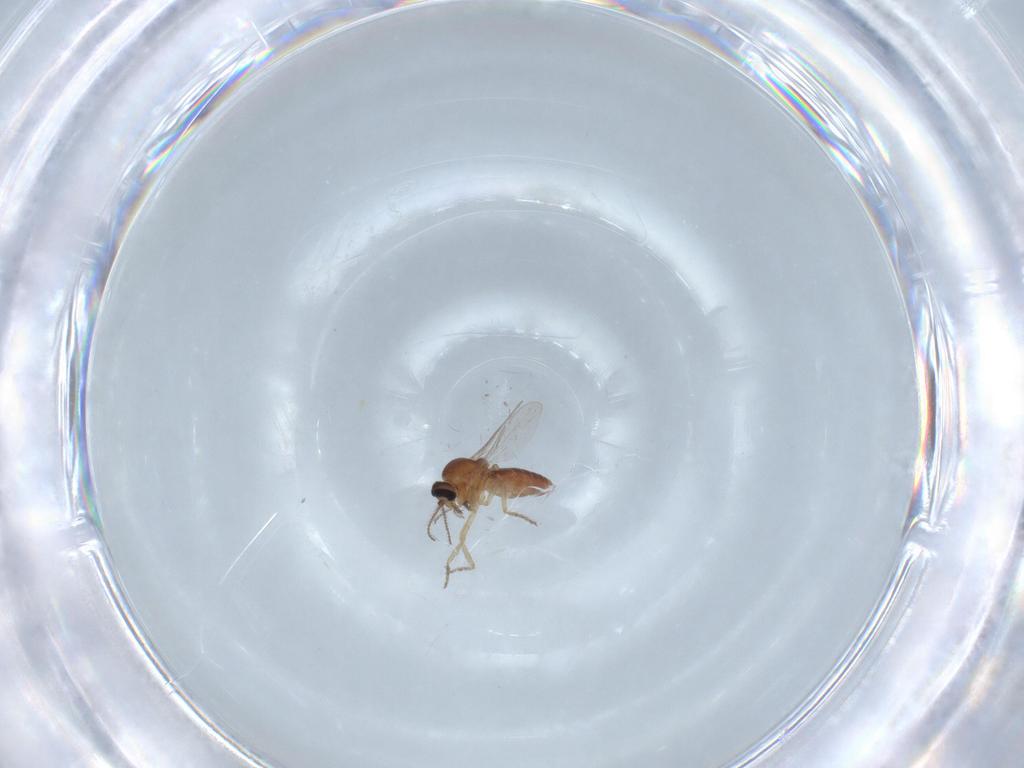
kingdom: Animalia
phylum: Arthropoda
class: Insecta
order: Diptera
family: Ceratopogonidae
